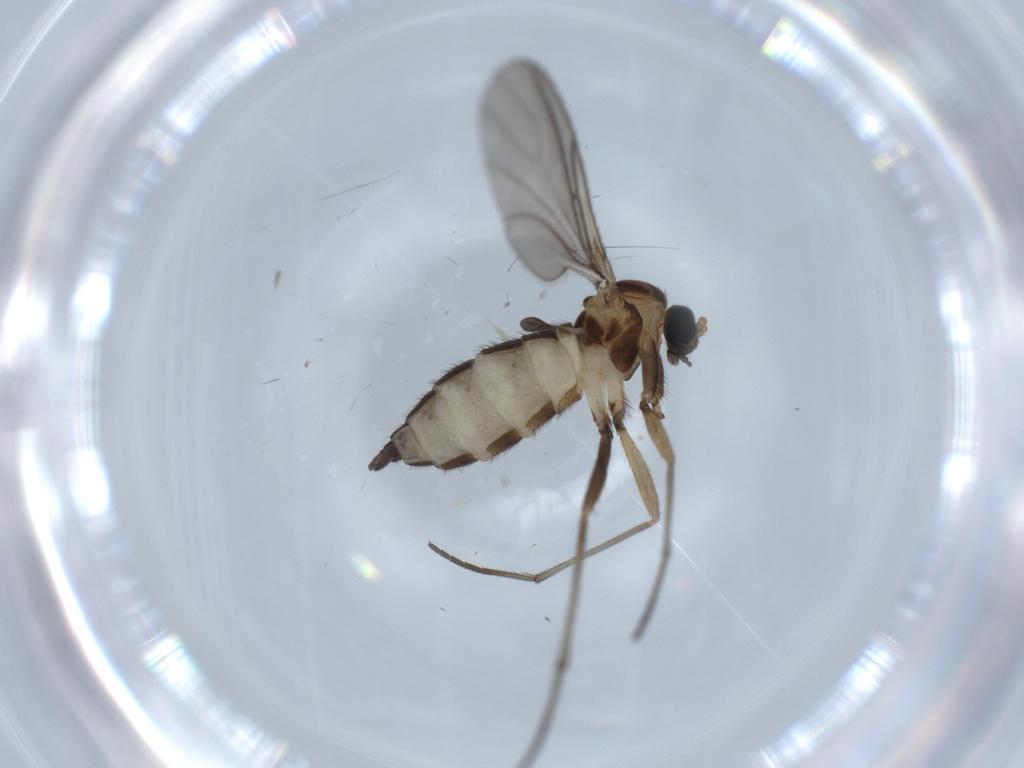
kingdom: Animalia
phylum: Arthropoda
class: Insecta
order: Diptera
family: Sciaridae
